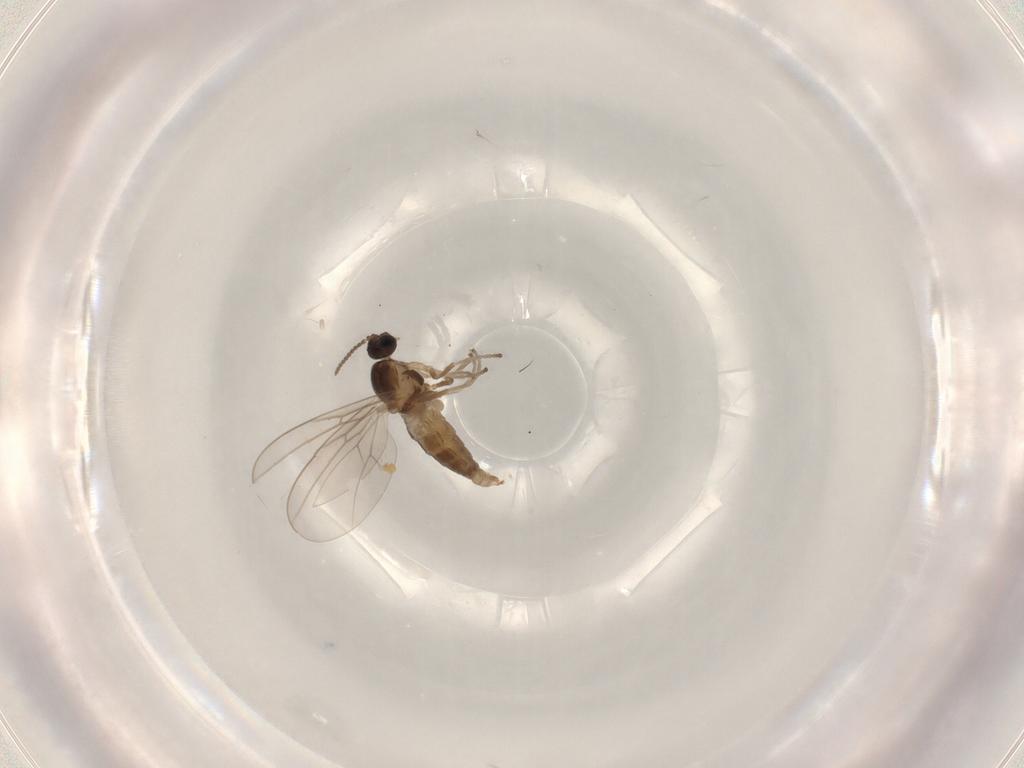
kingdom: Animalia
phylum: Arthropoda
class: Insecta
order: Diptera
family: Cecidomyiidae
